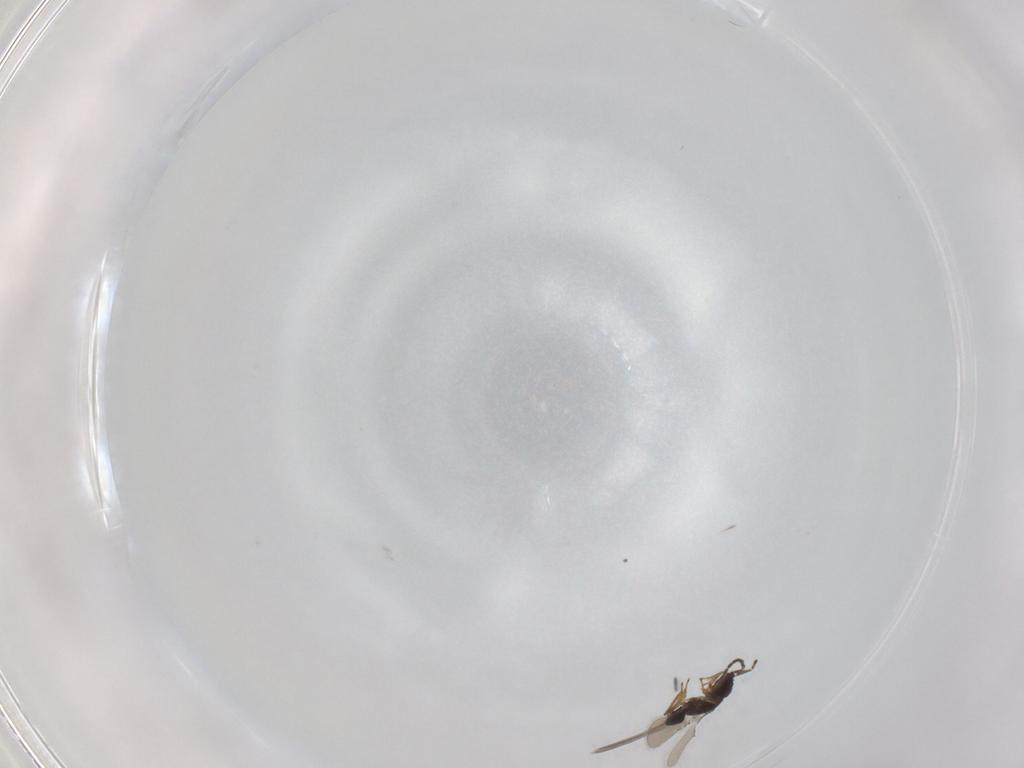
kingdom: Animalia
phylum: Arthropoda
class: Insecta
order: Hymenoptera
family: Mymaridae
